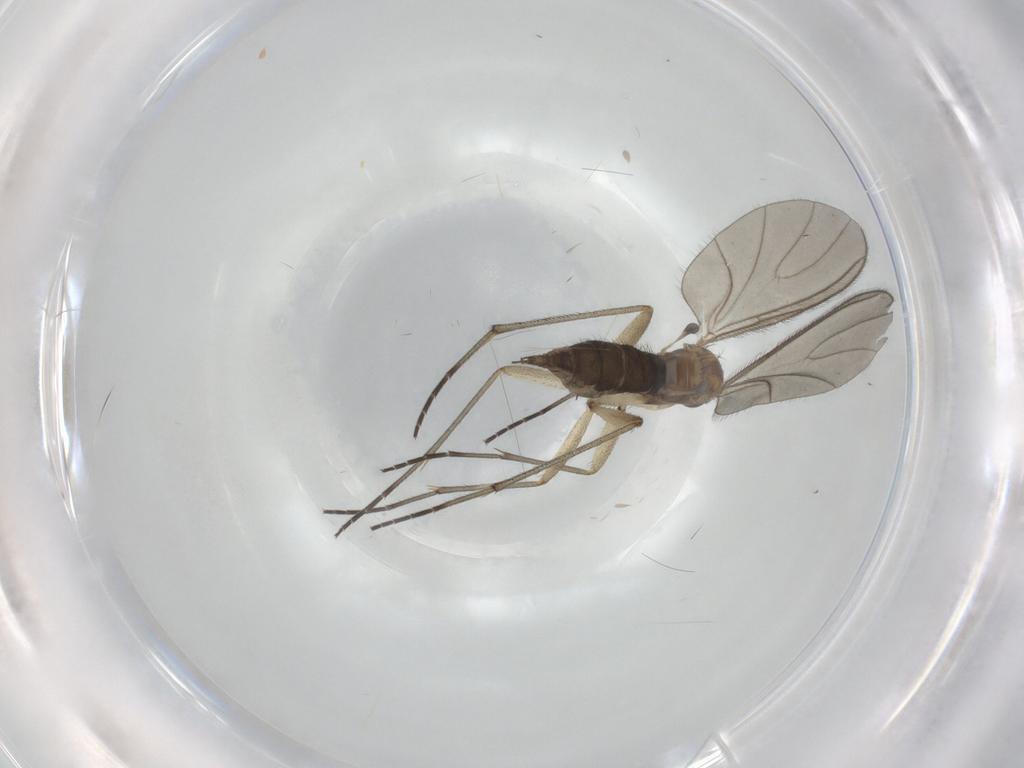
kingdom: Animalia
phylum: Arthropoda
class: Insecta
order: Diptera
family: Sciaridae
